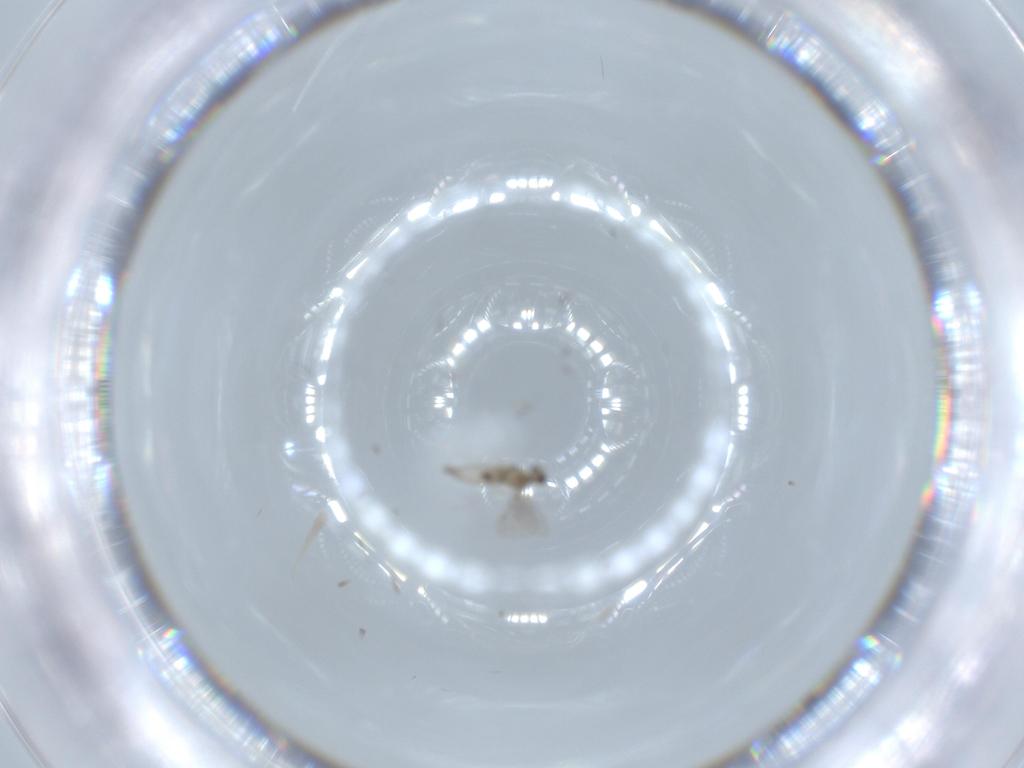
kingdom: Animalia
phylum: Arthropoda
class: Insecta
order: Diptera
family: Cecidomyiidae
